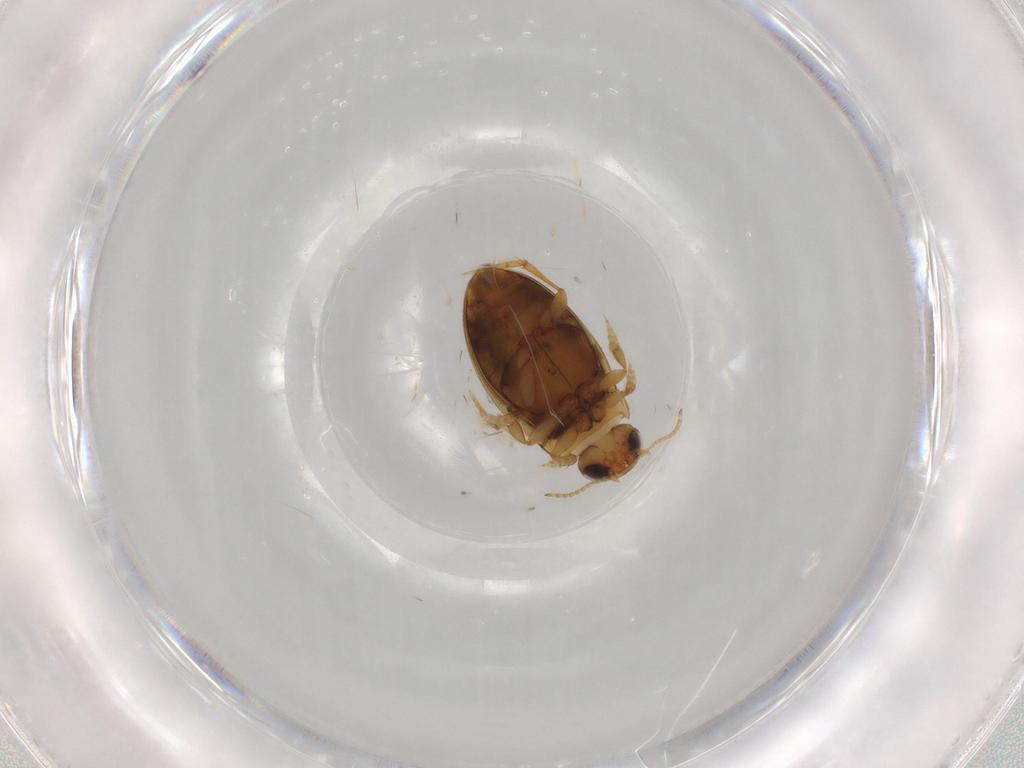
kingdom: Animalia
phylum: Arthropoda
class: Insecta
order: Coleoptera
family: Dytiscidae
